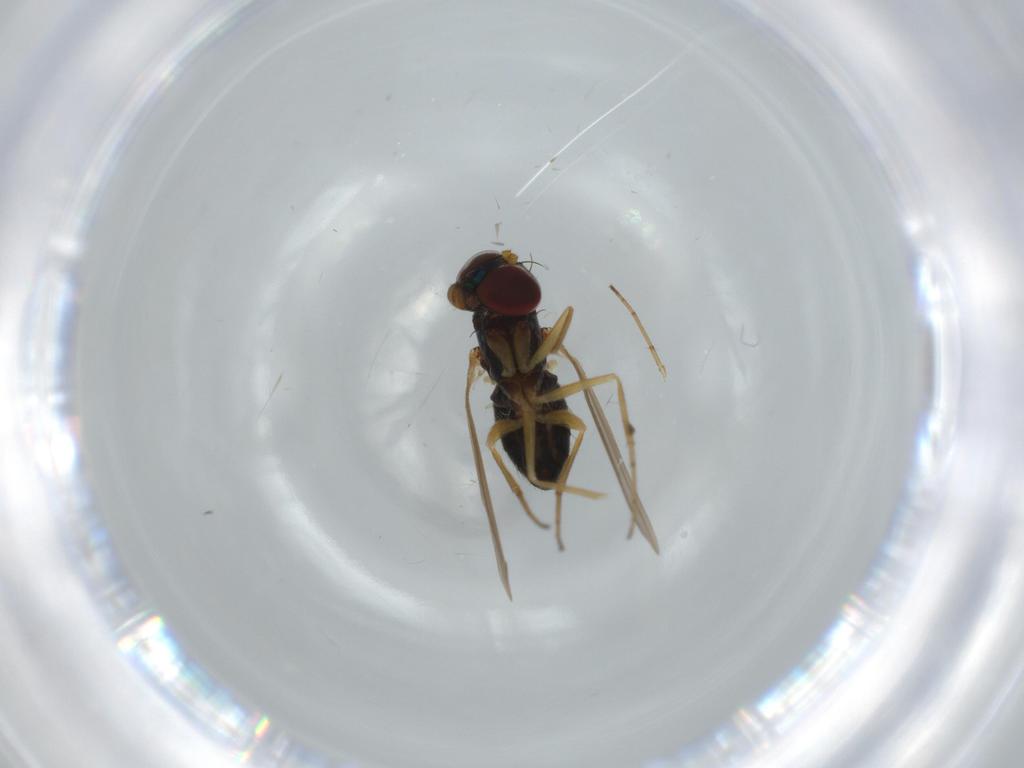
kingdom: Animalia
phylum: Arthropoda
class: Insecta
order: Diptera
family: Dolichopodidae
